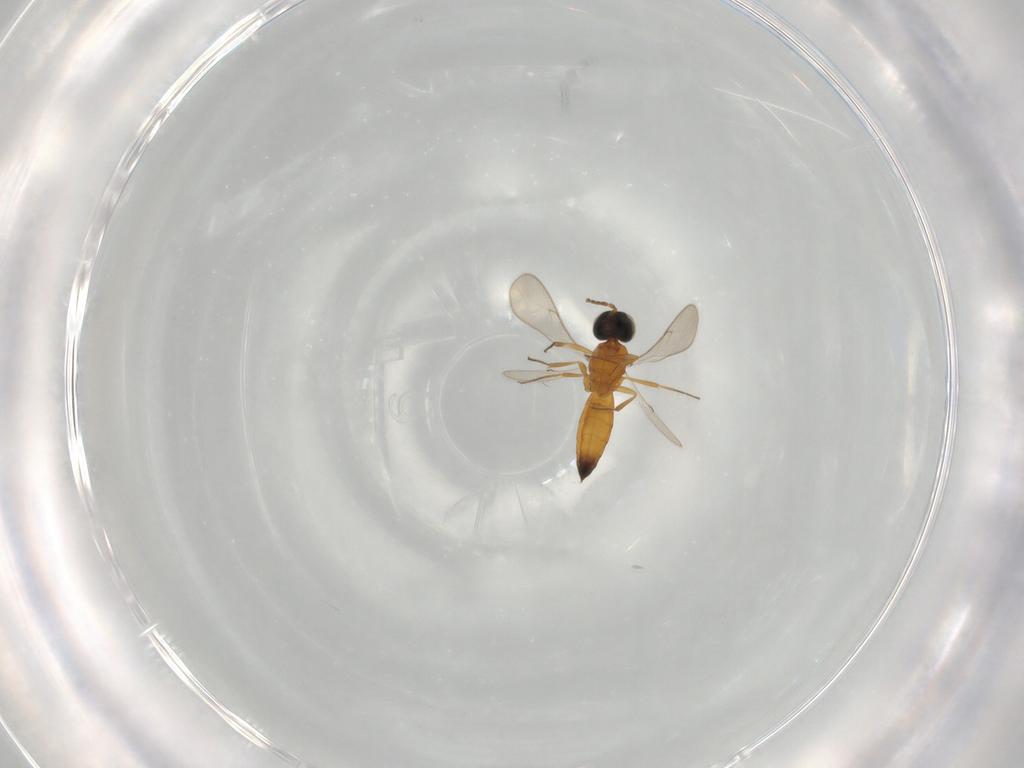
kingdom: Animalia
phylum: Arthropoda
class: Insecta
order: Hymenoptera
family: Scelionidae
